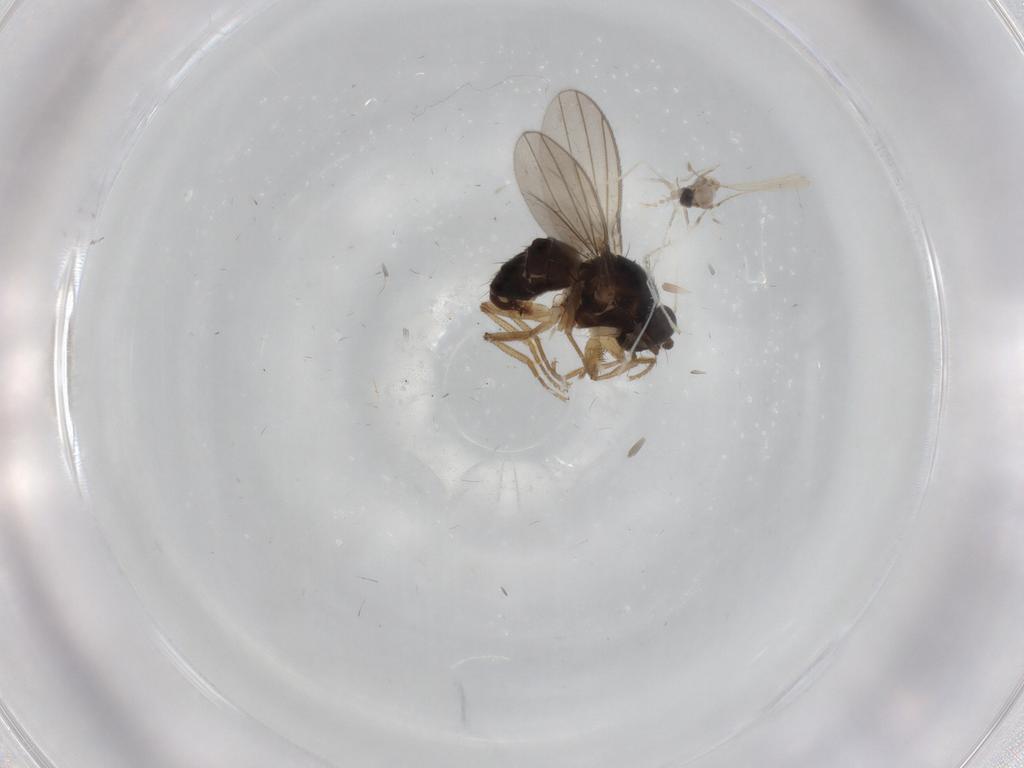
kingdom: Animalia
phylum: Arthropoda
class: Insecta
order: Diptera
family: Cecidomyiidae
